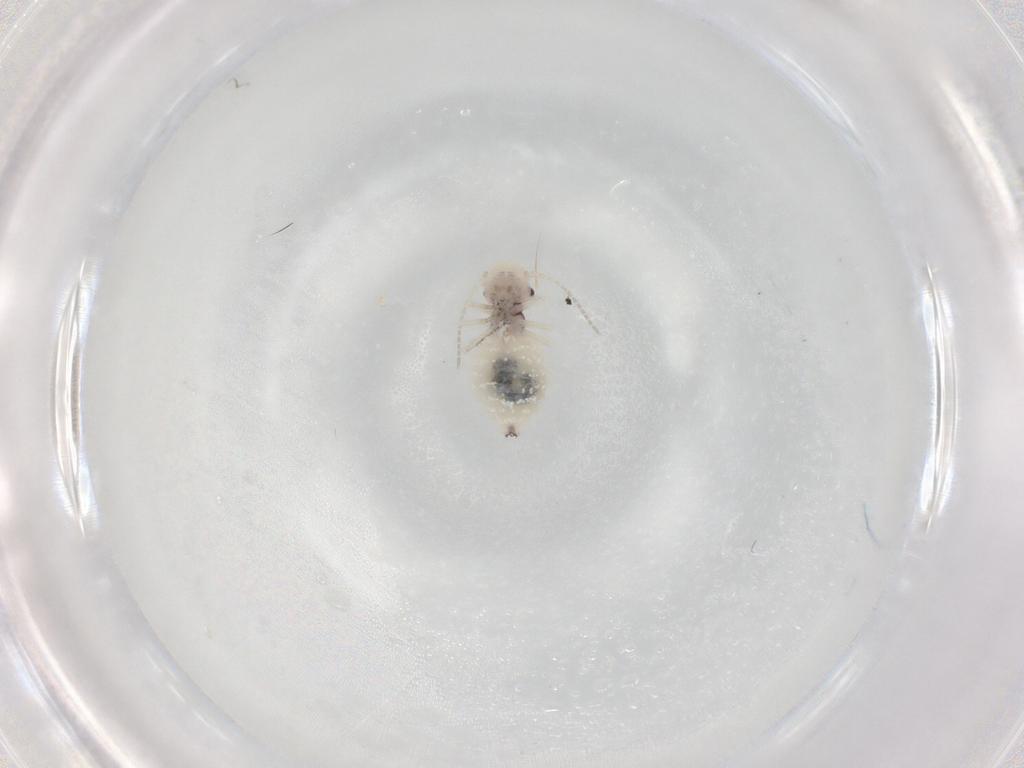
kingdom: Animalia
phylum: Arthropoda
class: Insecta
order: Psocodea
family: Amphipsocidae
